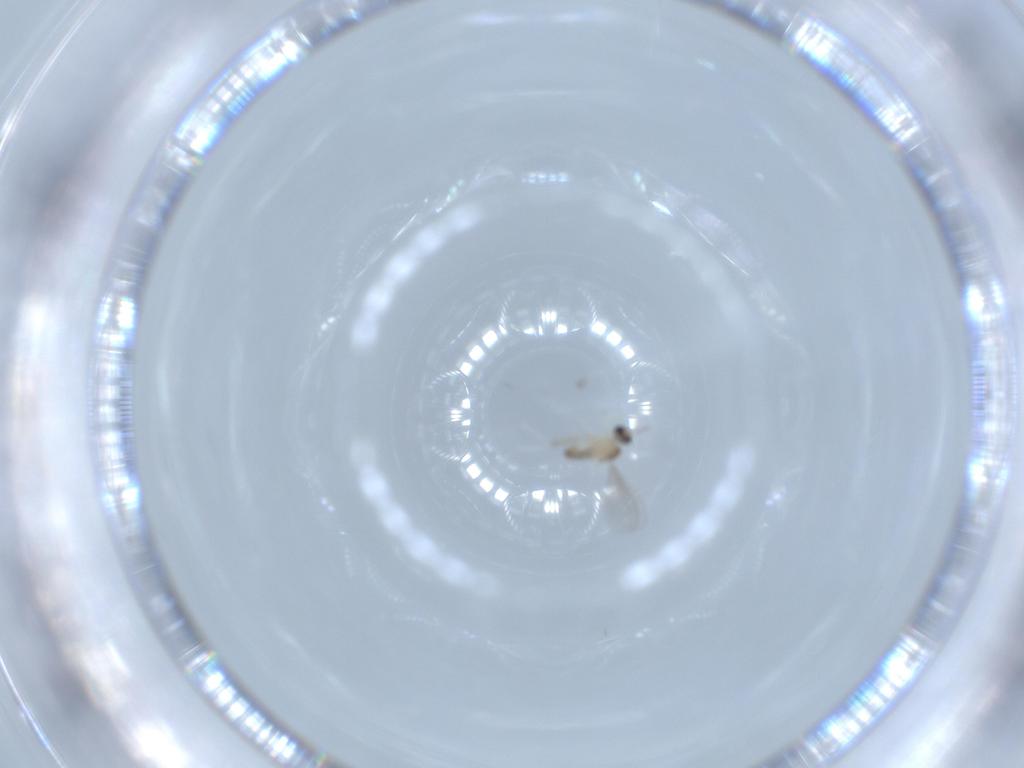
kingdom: Animalia
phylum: Arthropoda
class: Insecta
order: Diptera
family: Cecidomyiidae
